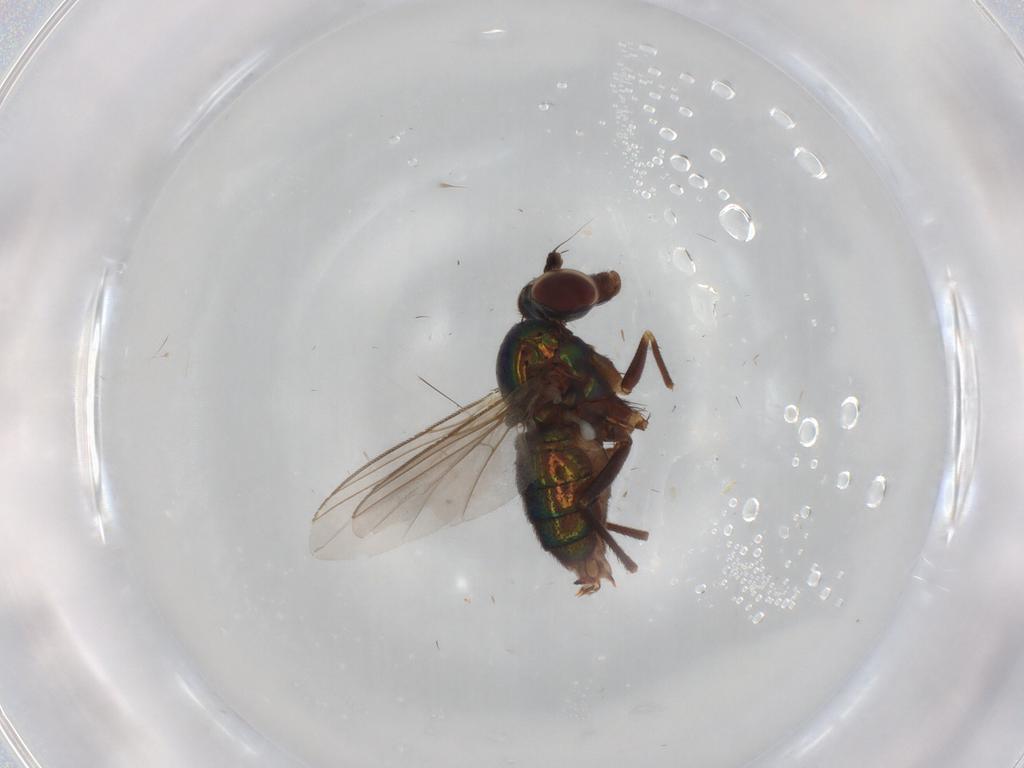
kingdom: Animalia
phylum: Arthropoda
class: Insecta
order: Diptera
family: Dolichopodidae
